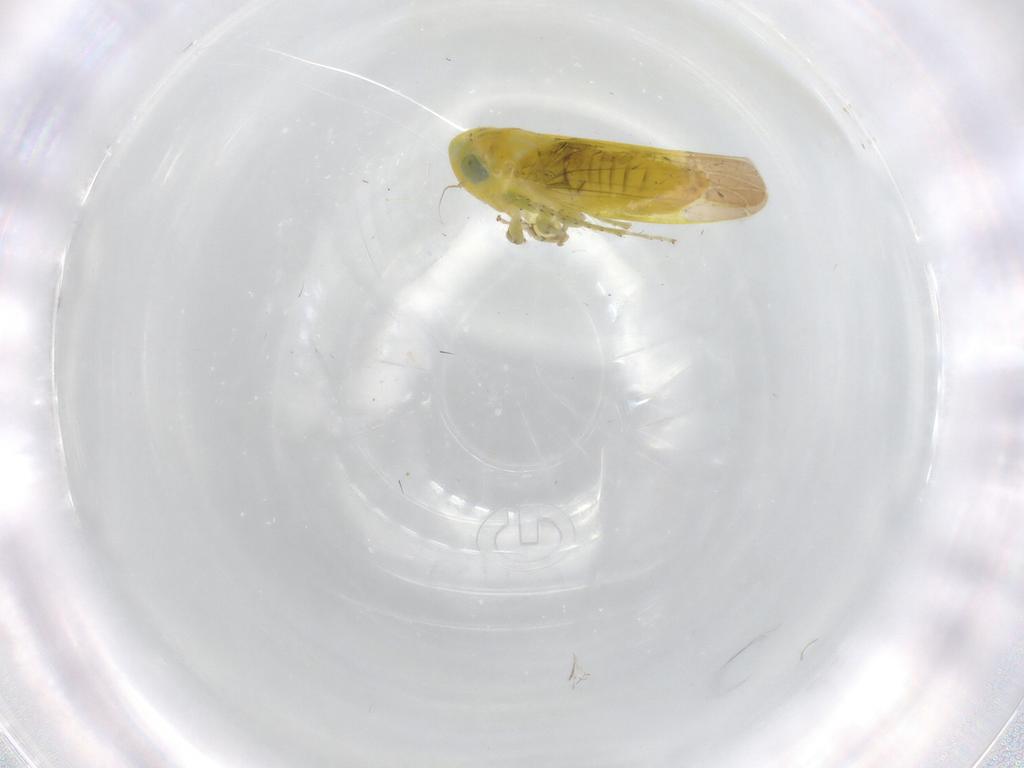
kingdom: Animalia
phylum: Arthropoda
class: Insecta
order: Hemiptera
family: Cicadellidae
